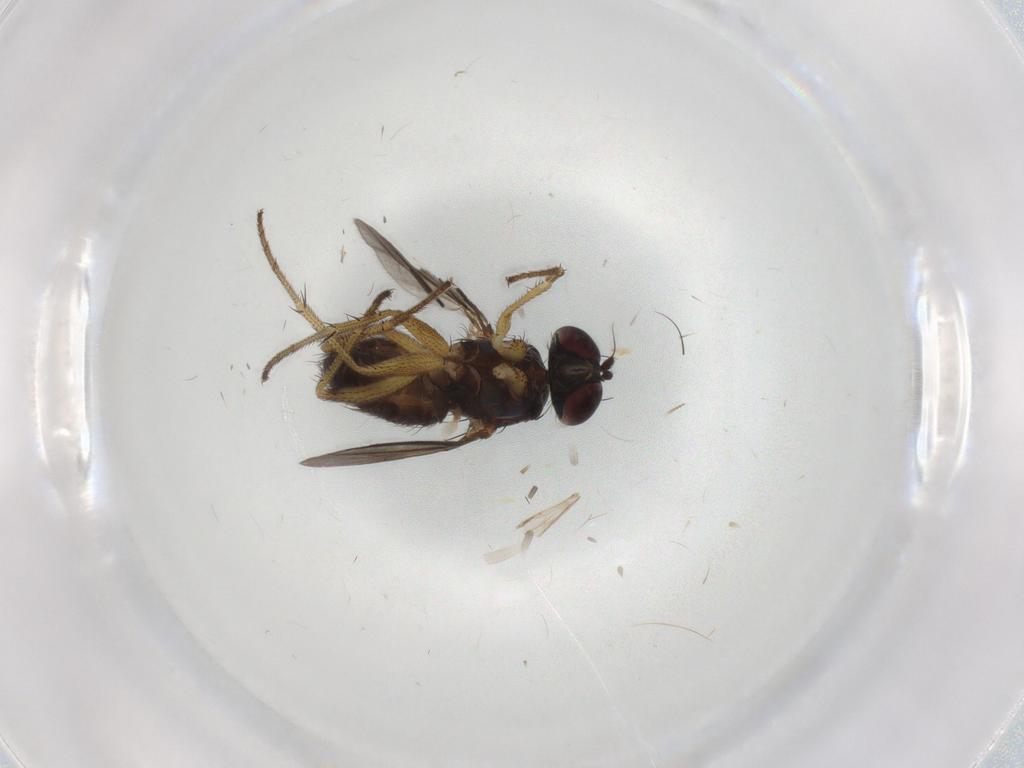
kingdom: Animalia
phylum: Arthropoda
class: Insecta
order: Diptera
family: Dolichopodidae
